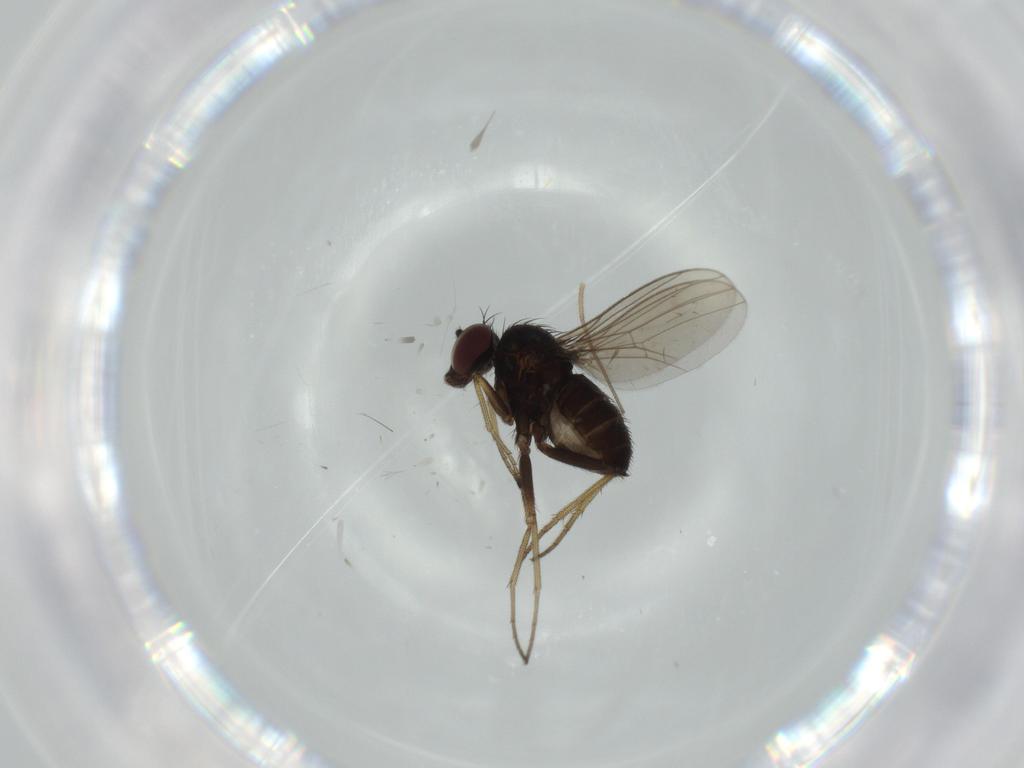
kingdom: Animalia
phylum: Arthropoda
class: Insecta
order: Diptera
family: Dolichopodidae
